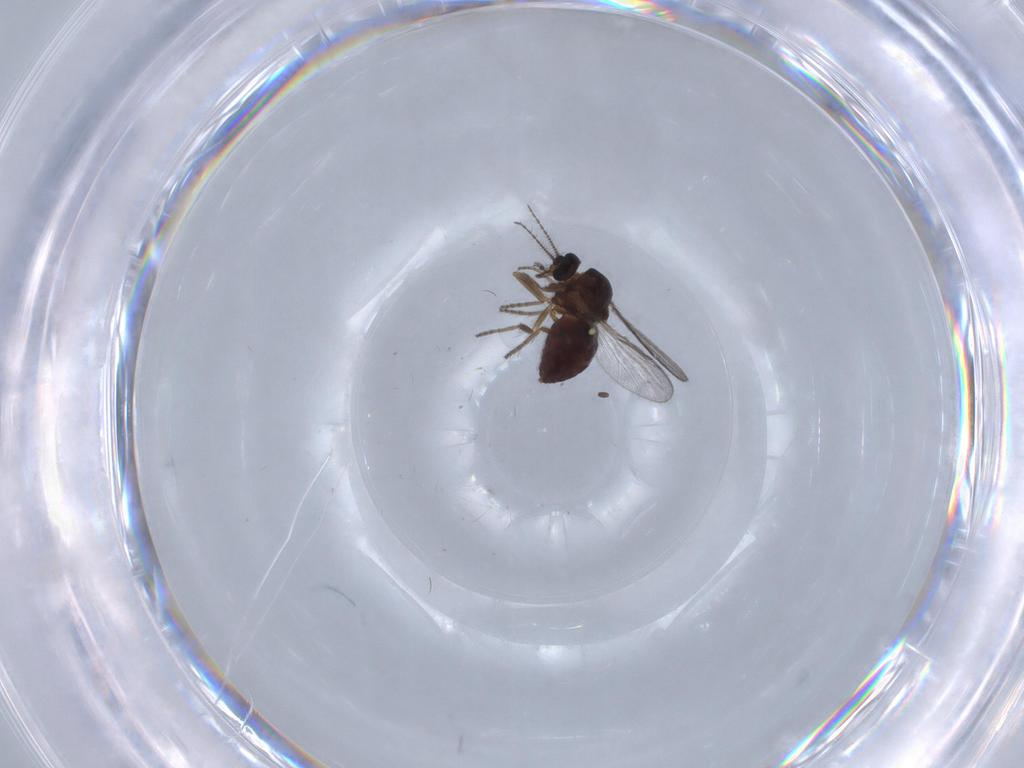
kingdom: Animalia
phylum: Arthropoda
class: Insecta
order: Diptera
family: Ceratopogonidae
